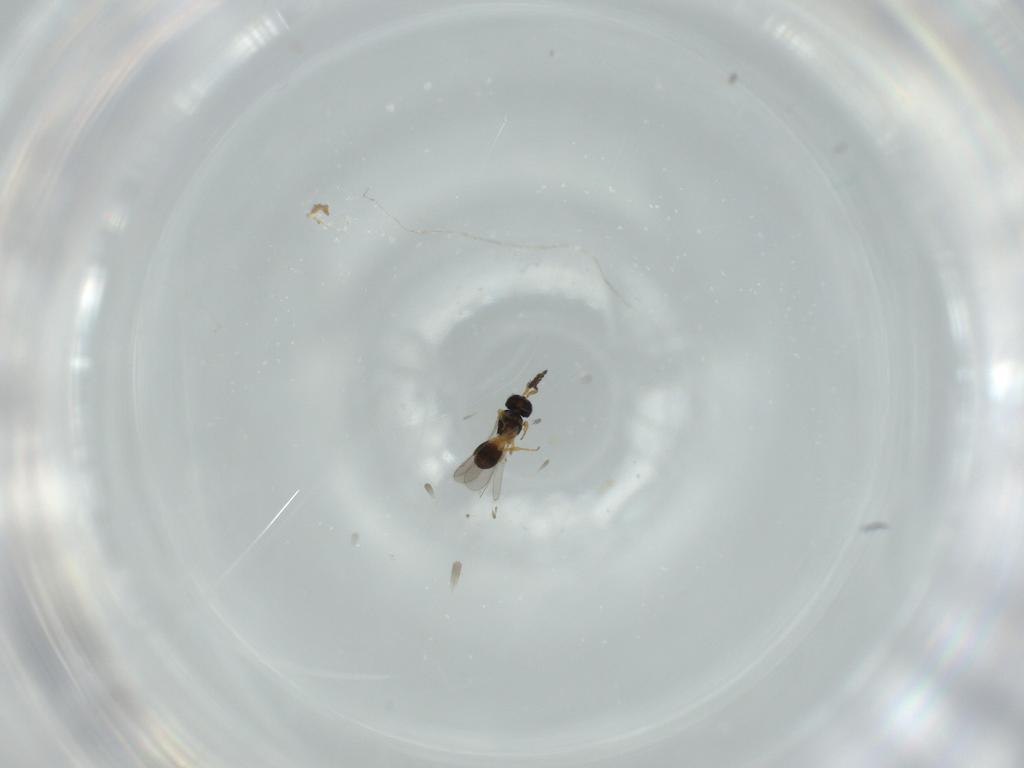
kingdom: Animalia
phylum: Arthropoda
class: Insecta
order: Hymenoptera
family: Scelionidae
